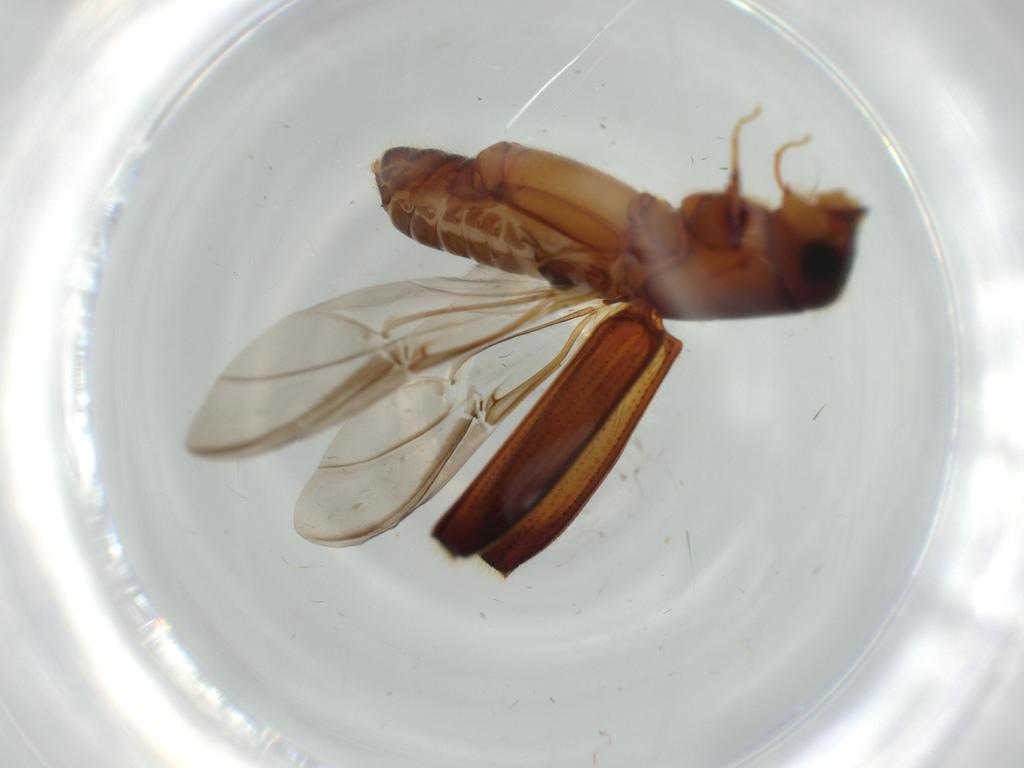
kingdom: Animalia
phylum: Arthropoda
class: Insecta
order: Coleoptera
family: Curculionidae
